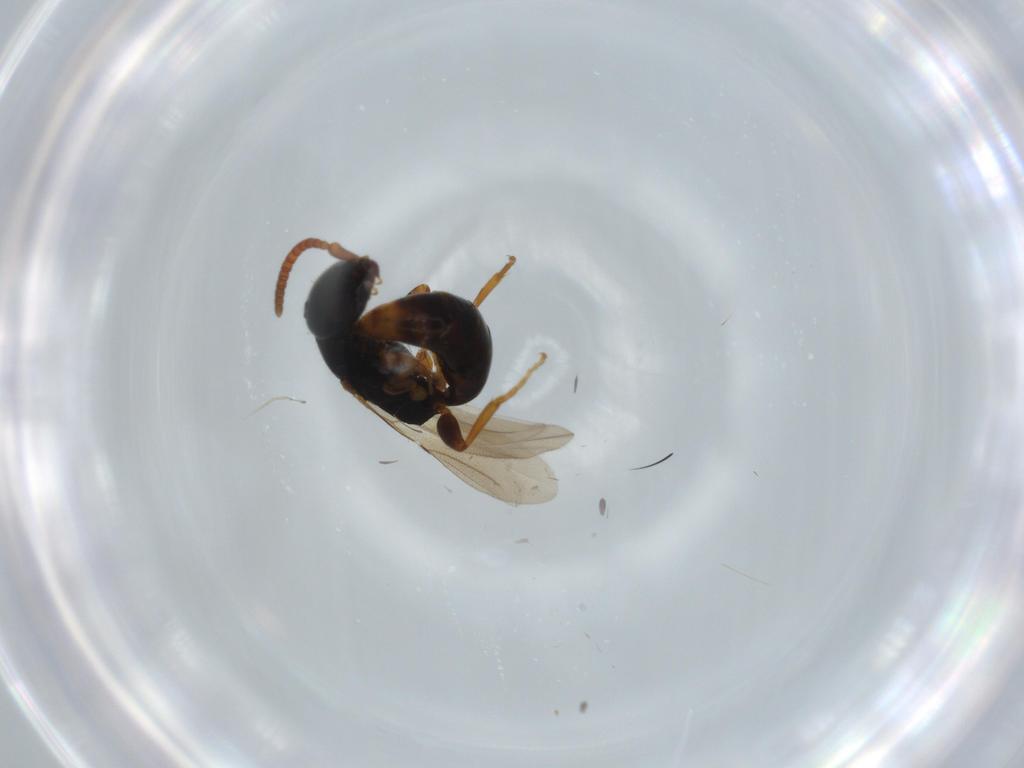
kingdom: Animalia
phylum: Arthropoda
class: Insecta
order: Hymenoptera
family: Bethylidae
